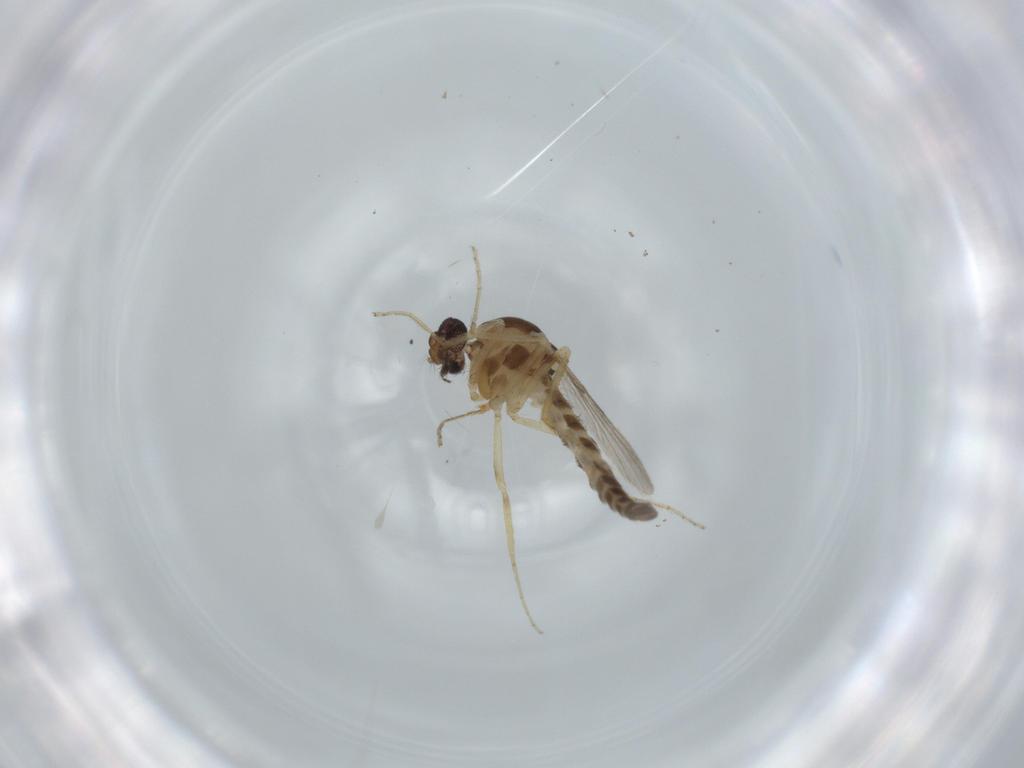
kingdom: Animalia
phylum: Arthropoda
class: Insecta
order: Diptera
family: Ceratopogonidae
